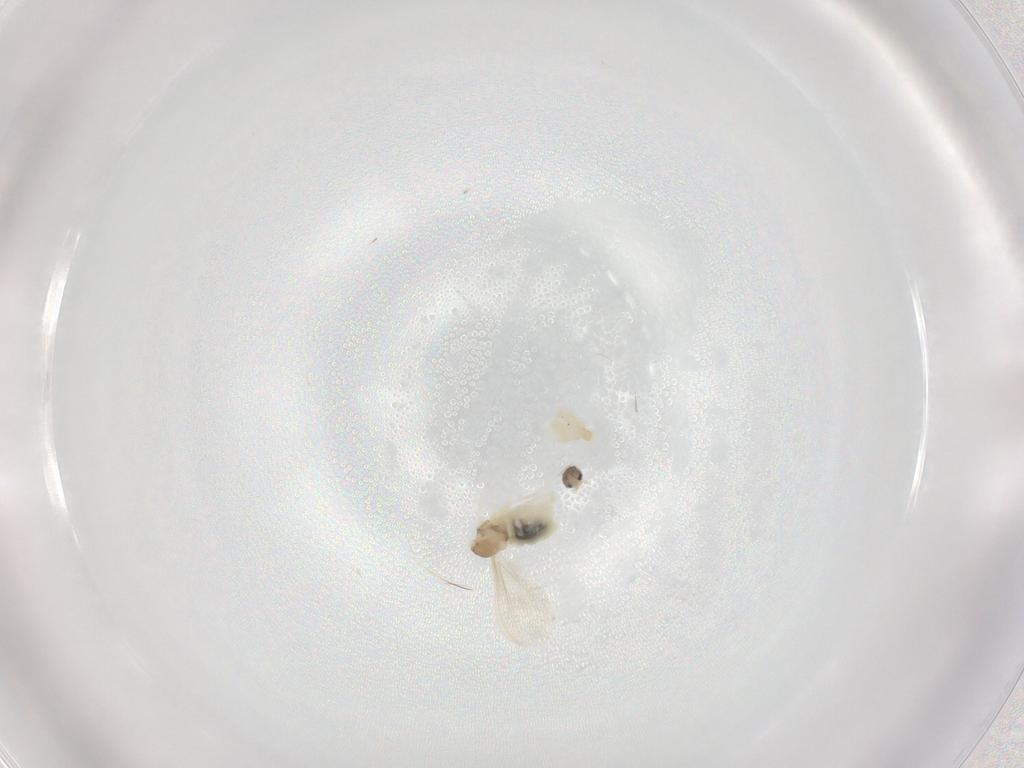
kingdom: Animalia
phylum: Arthropoda
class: Insecta
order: Diptera
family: Cecidomyiidae
